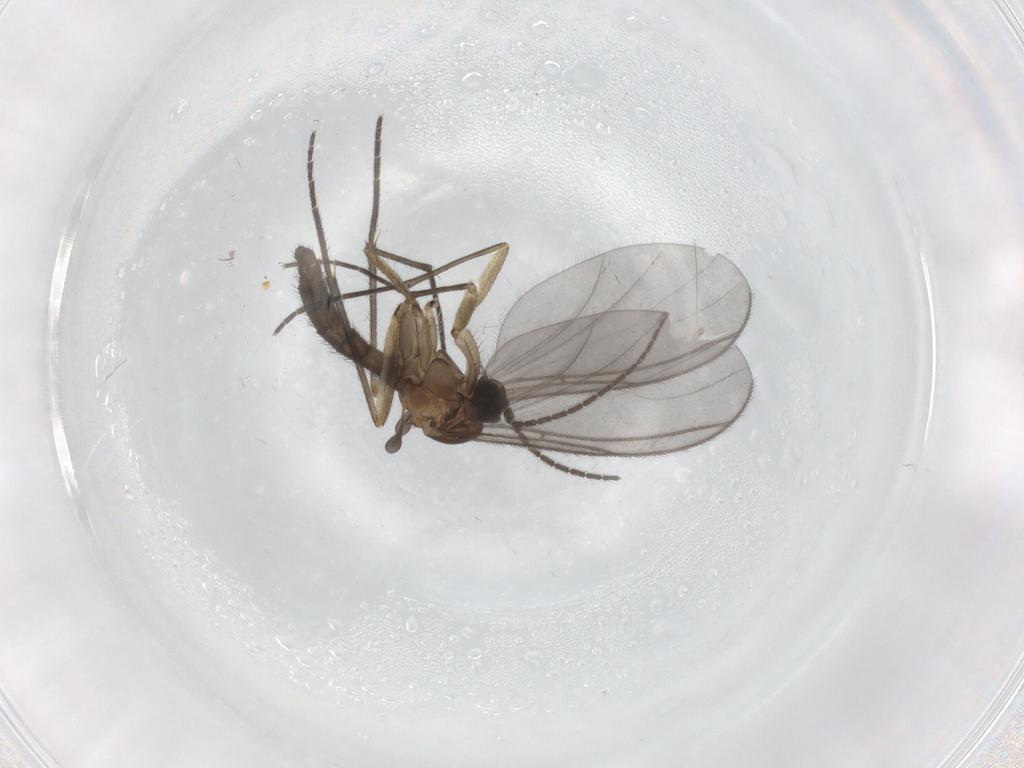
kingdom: Animalia
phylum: Arthropoda
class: Insecta
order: Diptera
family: Sciaridae
